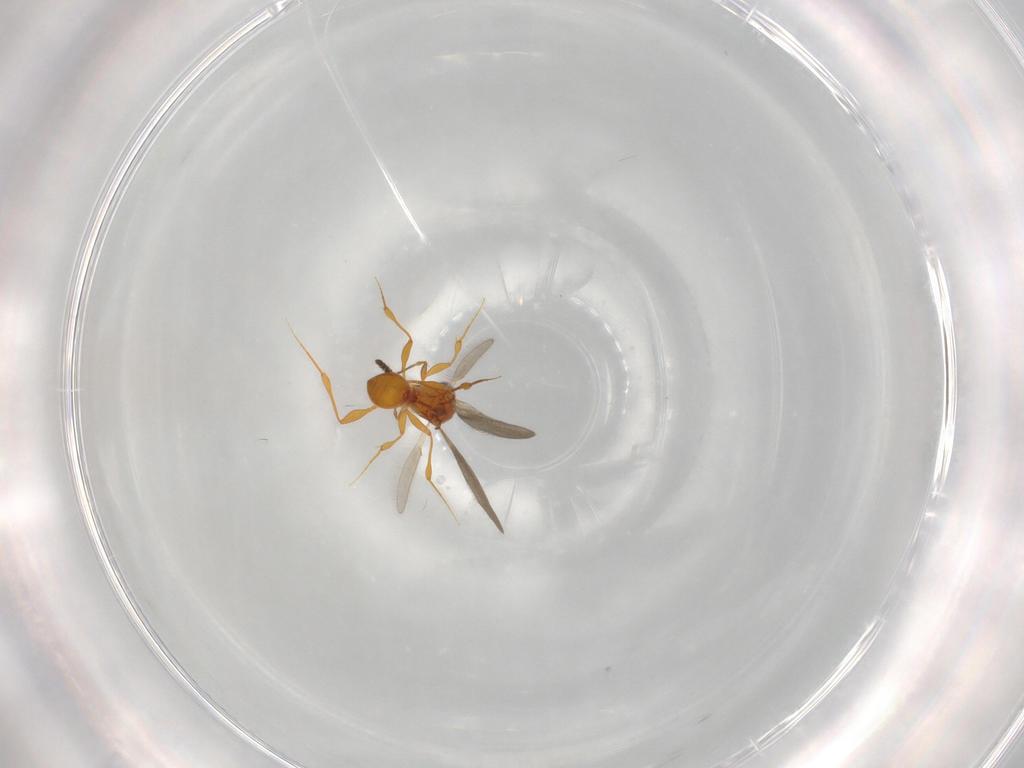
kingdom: Animalia
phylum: Arthropoda
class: Insecta
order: Hymenoptera
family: Platygastridae
